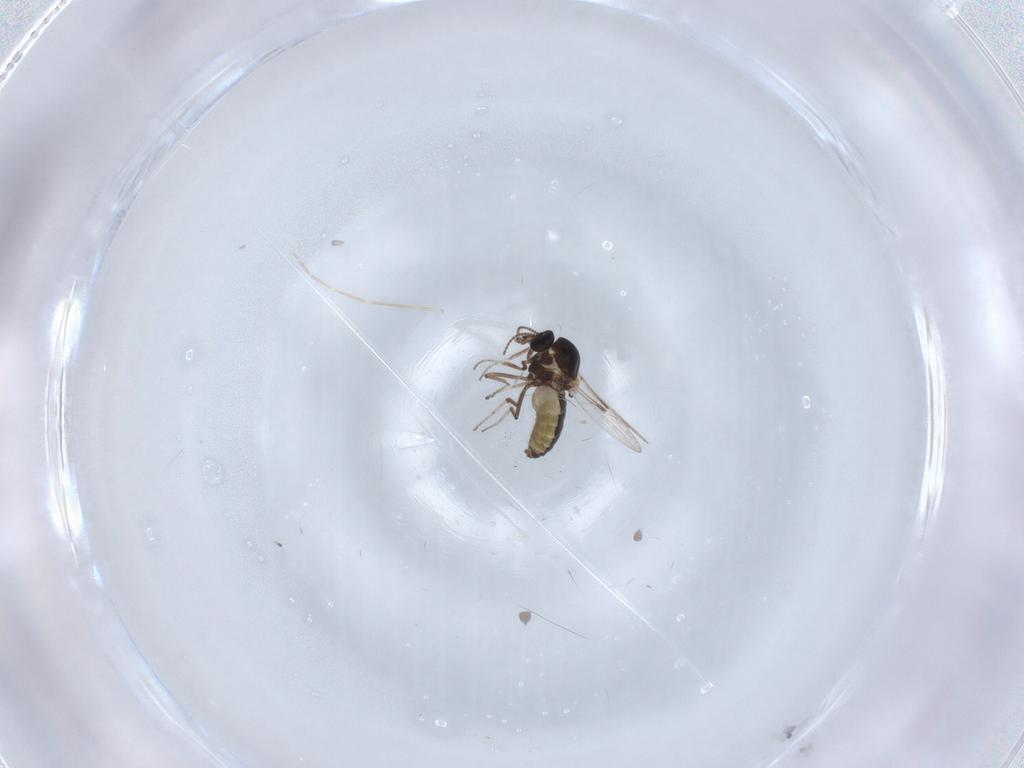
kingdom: Animalia
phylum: Arthropoda
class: Insecta
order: Diptera
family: Ceratopogonidae
